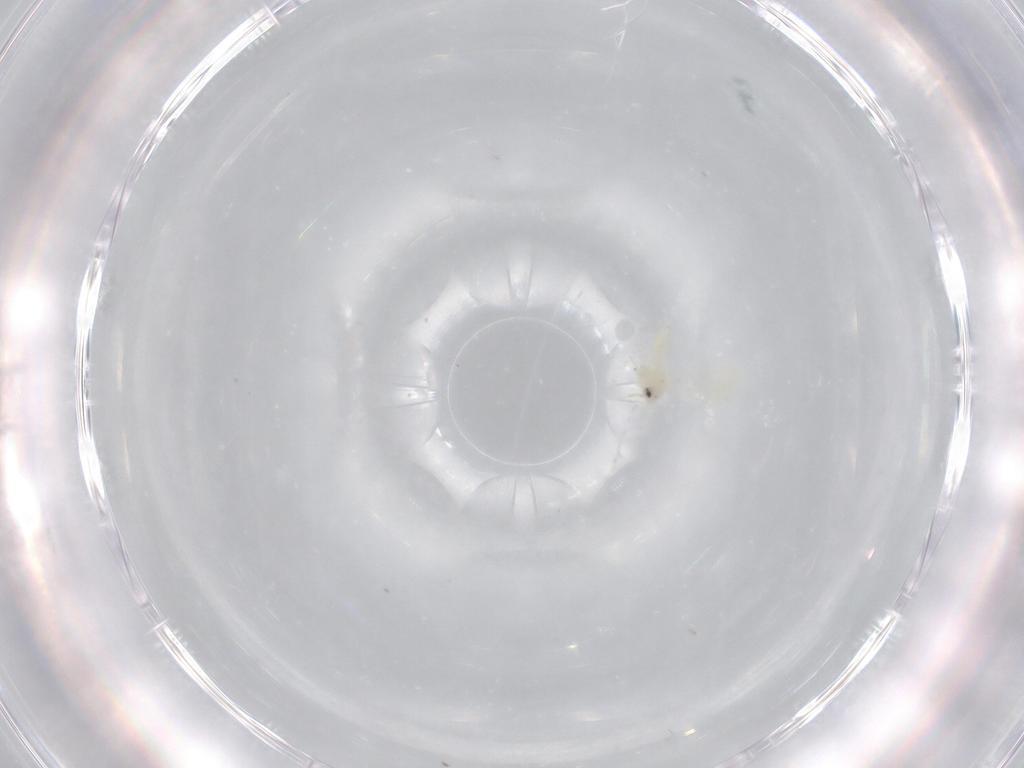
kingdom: Animalia
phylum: Arthropoda
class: Insecta
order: Hemiptera
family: Aleyrodidae
